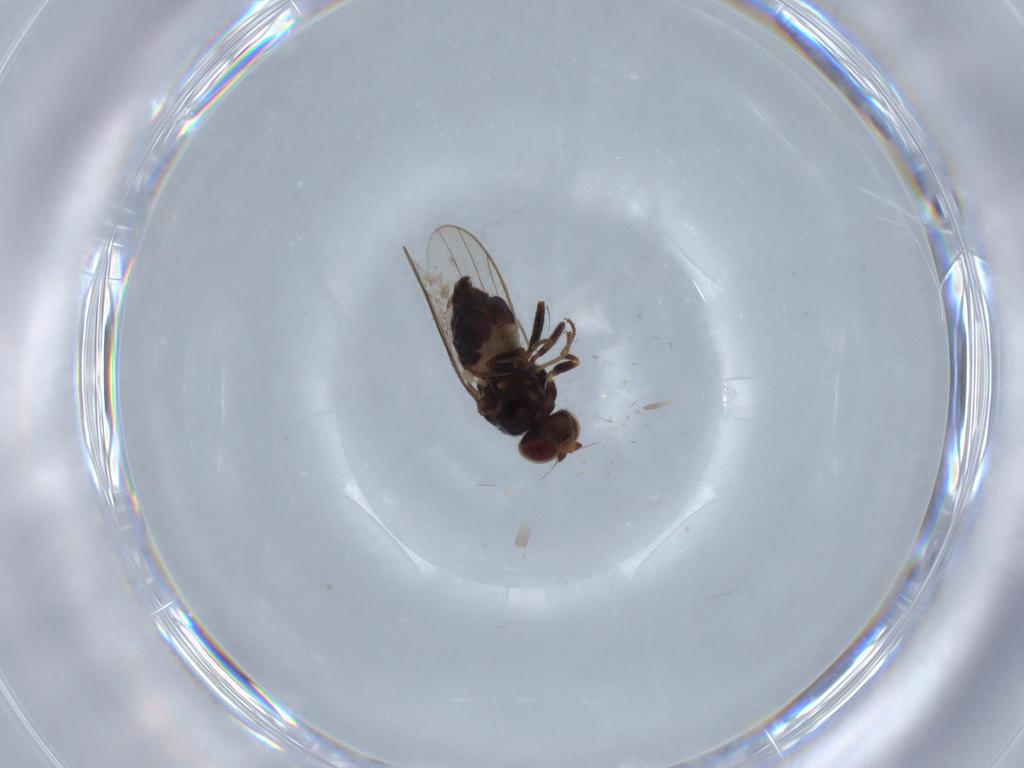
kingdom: Animalia
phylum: Arthropoda
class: Insecta
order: Diptera
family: Chloropidae
